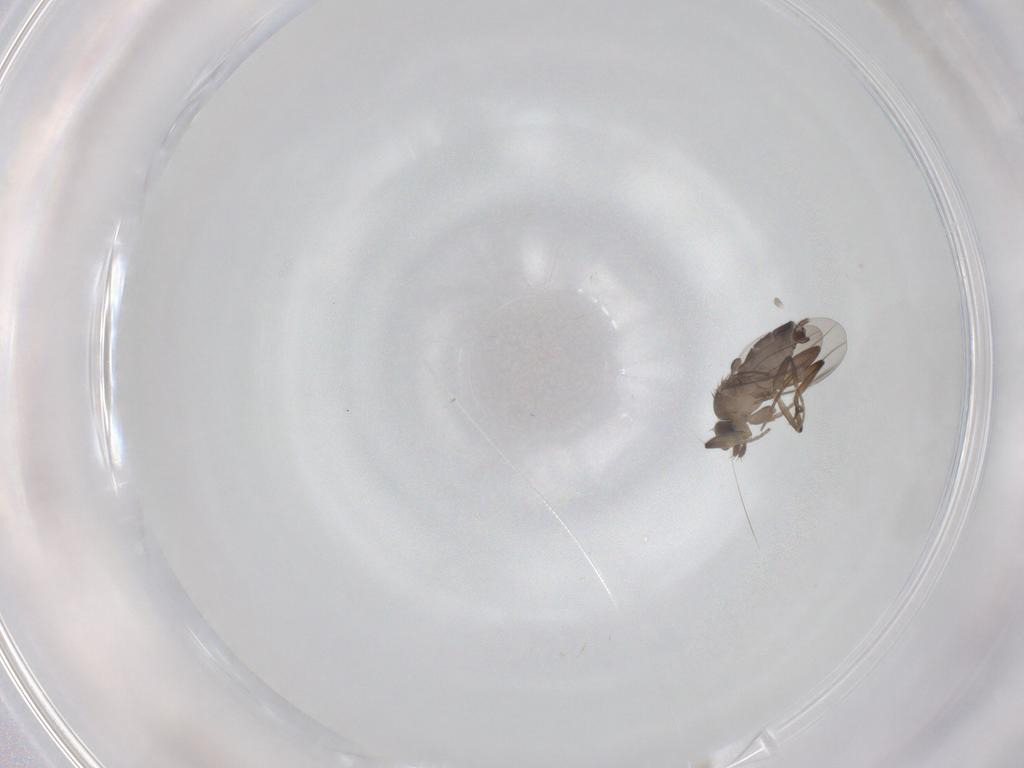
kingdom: Animalia
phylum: Arthropoda
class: Insecta
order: Diptera
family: Phoridae
